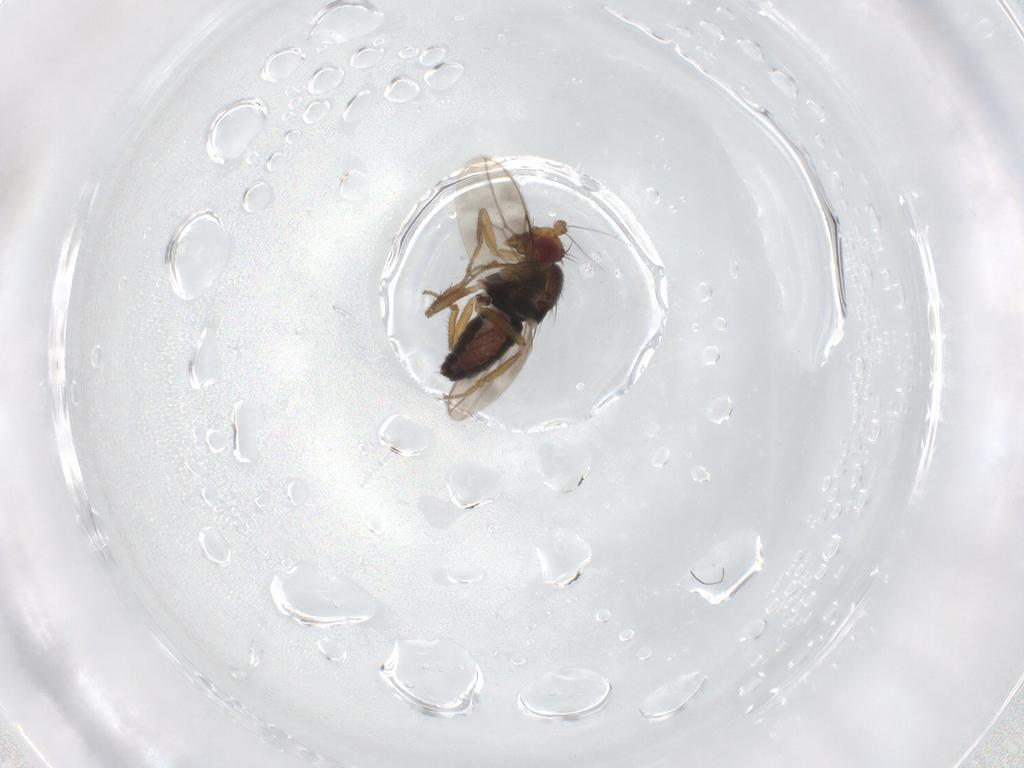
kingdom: Animalia
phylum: Arthropoda
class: Insecta
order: Diptera
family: Sphaeroceridae
